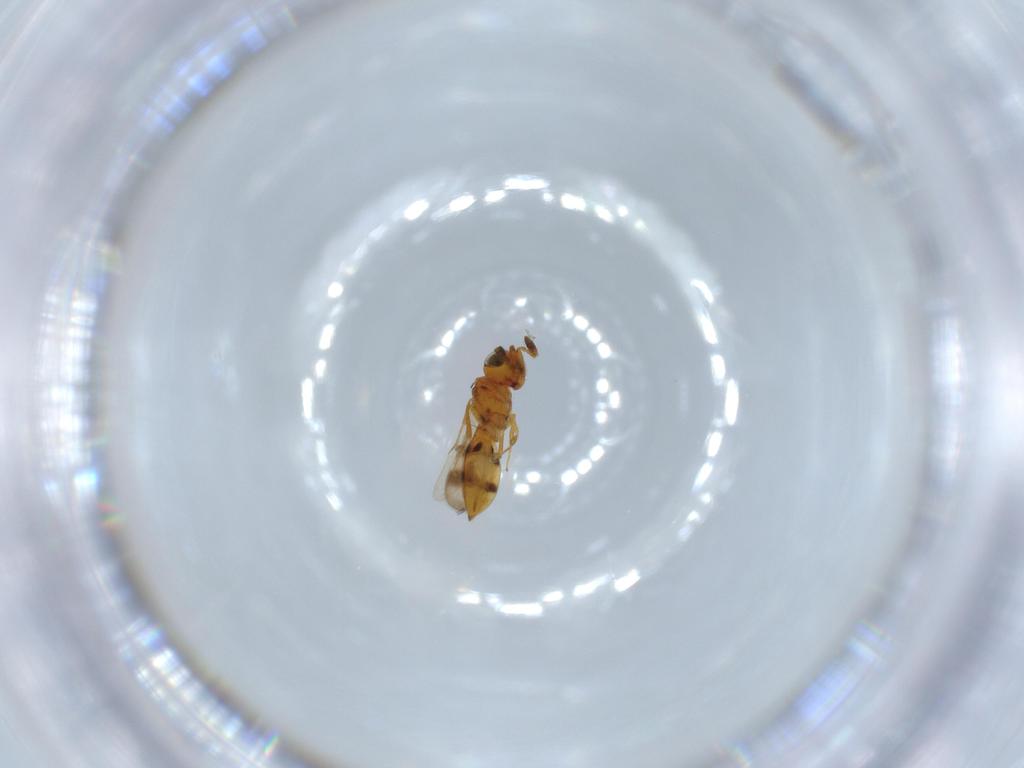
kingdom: Animalia
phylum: Arthropoda
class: Insecta
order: Hymenoptera
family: Scelionidae
